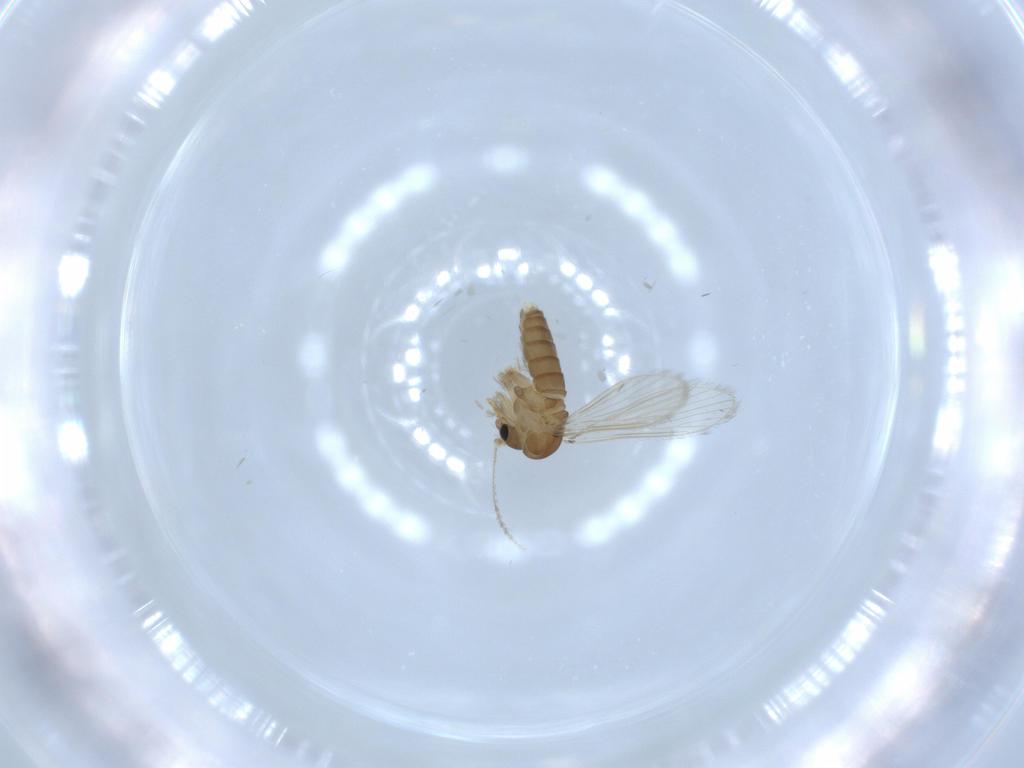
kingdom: Animalia
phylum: Arthropoda
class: Insecta
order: Diptera
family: Psychodidae
